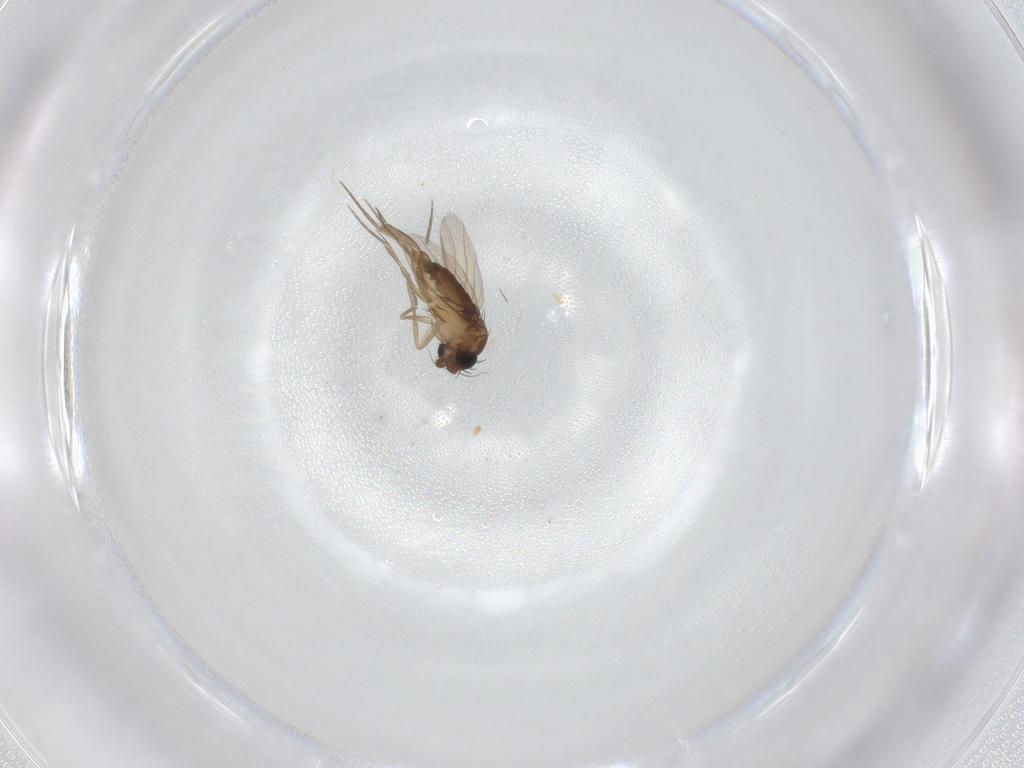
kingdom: Animalia
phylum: Arthropoda
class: Insecta
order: Diptera
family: Phoridae
